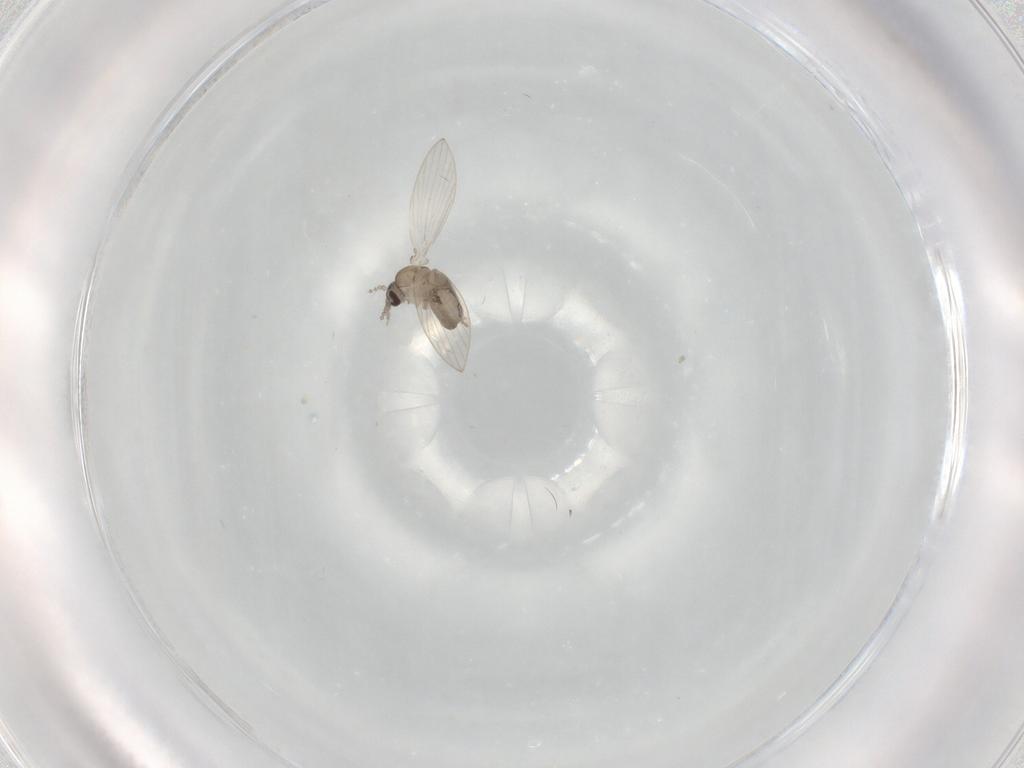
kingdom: Animalia
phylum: Arthropoda
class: Insecta
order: Diptera
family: Psychodidae
